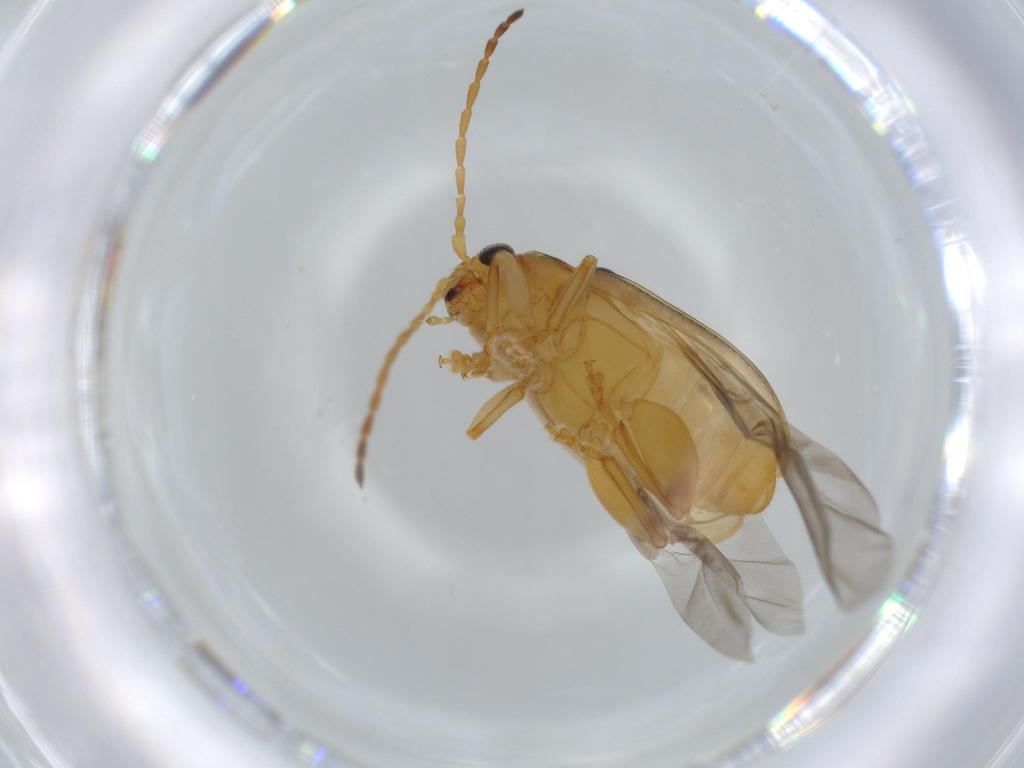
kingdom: Animalia
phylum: Arthropoda
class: Insecta
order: Coleoptera
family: Chrysomelidae
